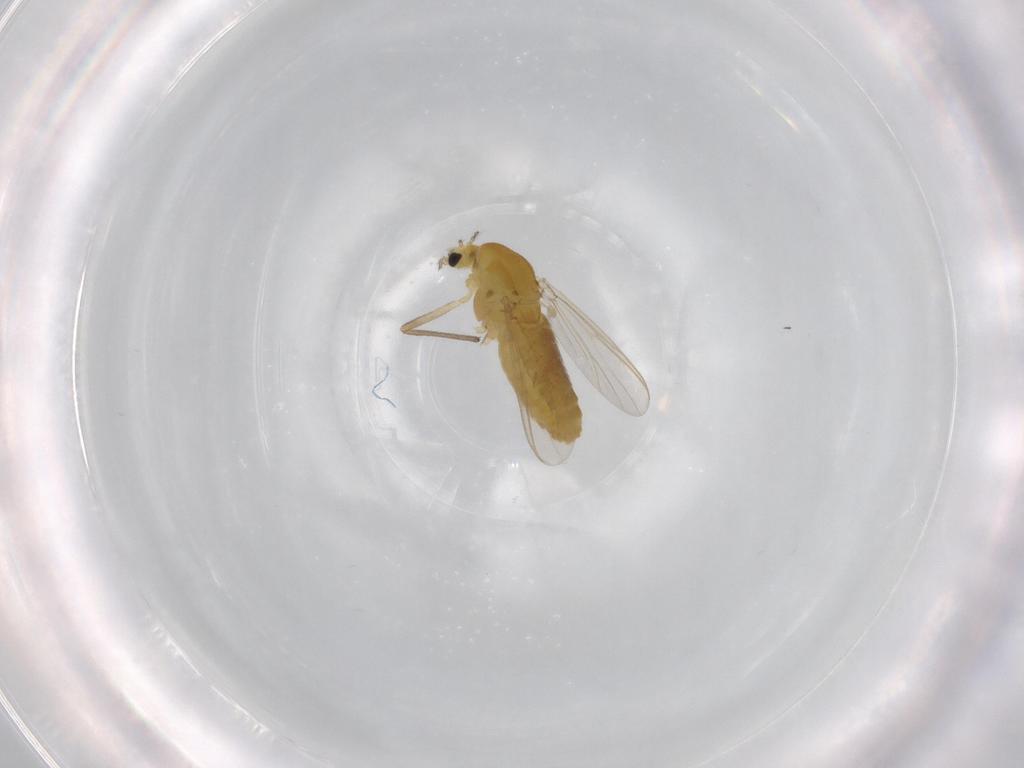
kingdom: Animalia
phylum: Arthropoda
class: Insecta
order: Diptera
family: Chironomidae
